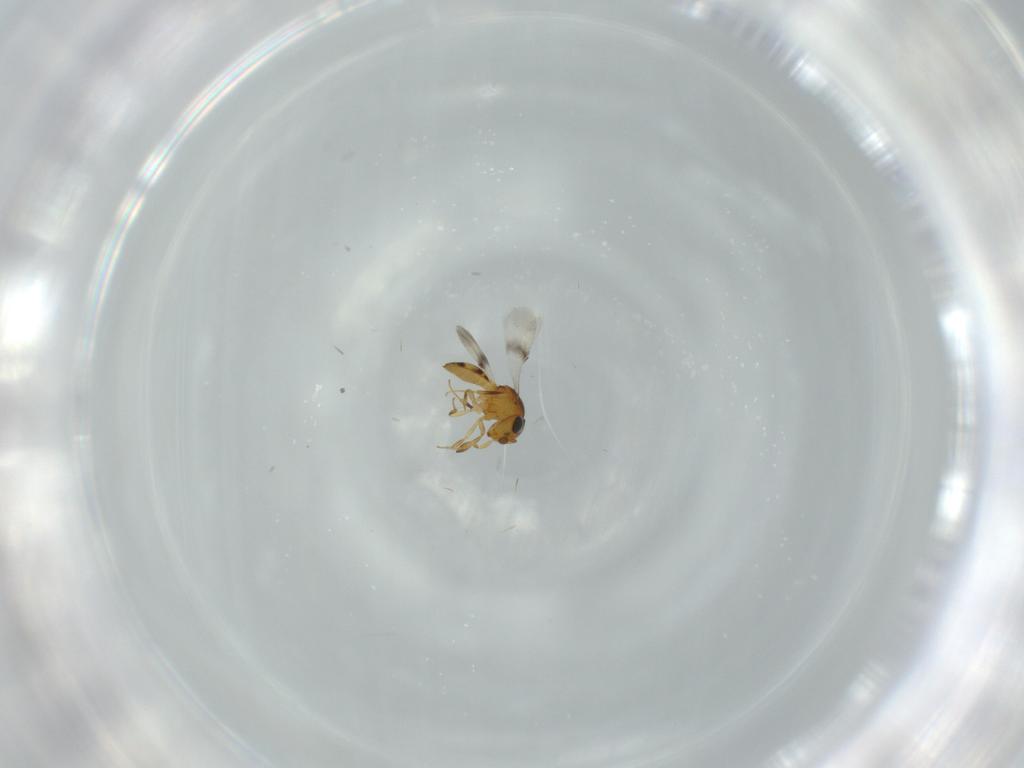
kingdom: Animalia
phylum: Arthropoda
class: Insecta
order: Hymenoptera
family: Scelionidae
